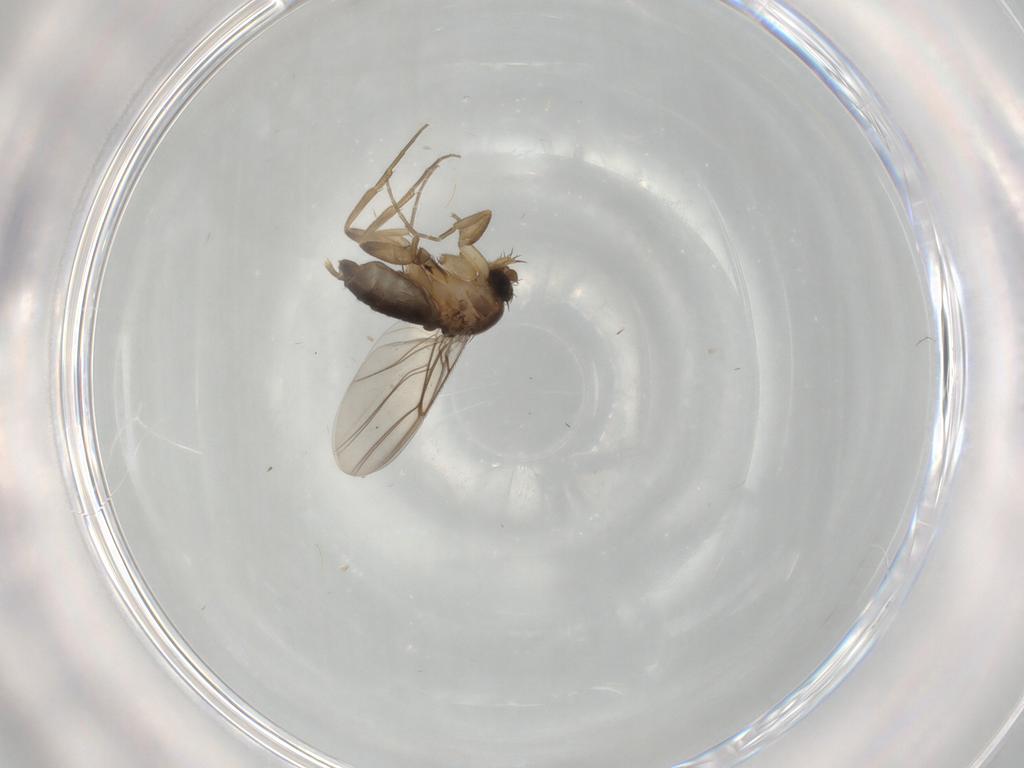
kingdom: Animalia
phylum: Arthropoda
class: Insecta
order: Diptera
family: Phoridae
